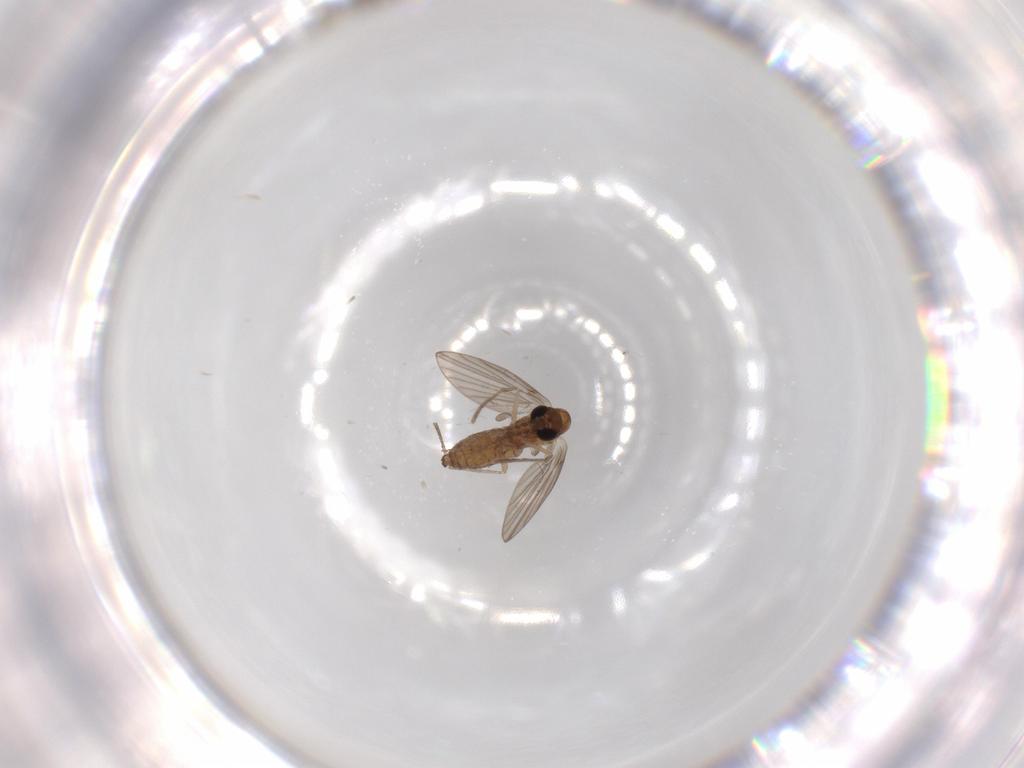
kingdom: Animalia
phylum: Arthropoda
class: Insecta
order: Diptera
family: Psychodidae
